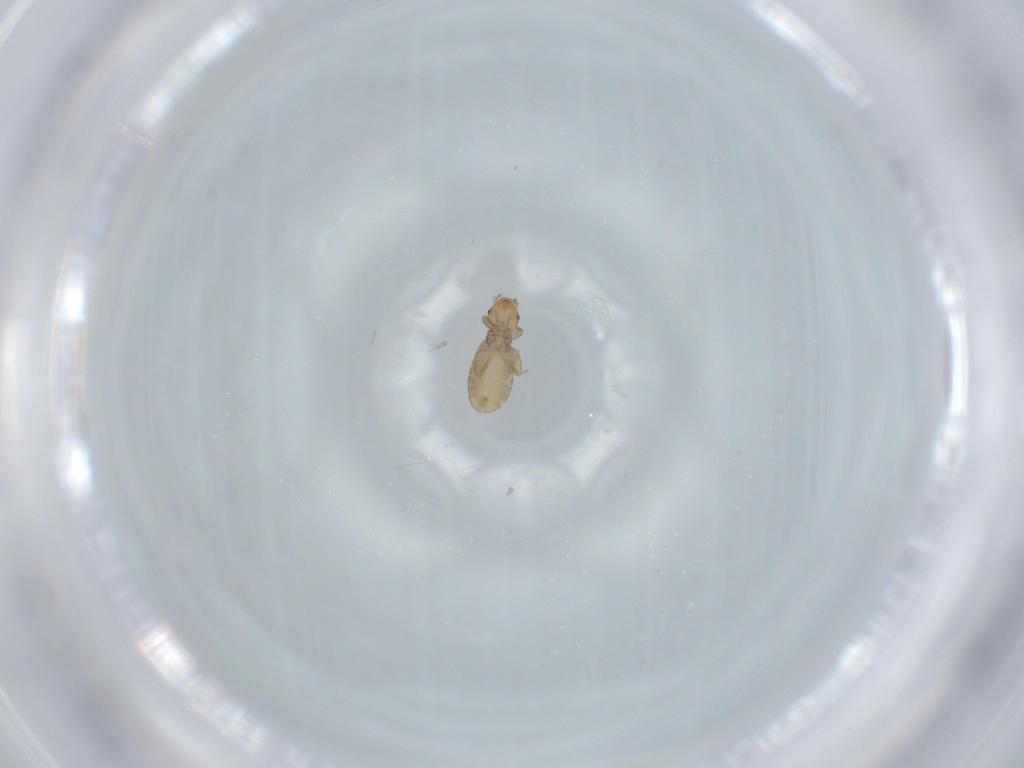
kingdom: Animalia
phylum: Arthropoda
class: Insecta
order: Psocodea
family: Liposcelididae
